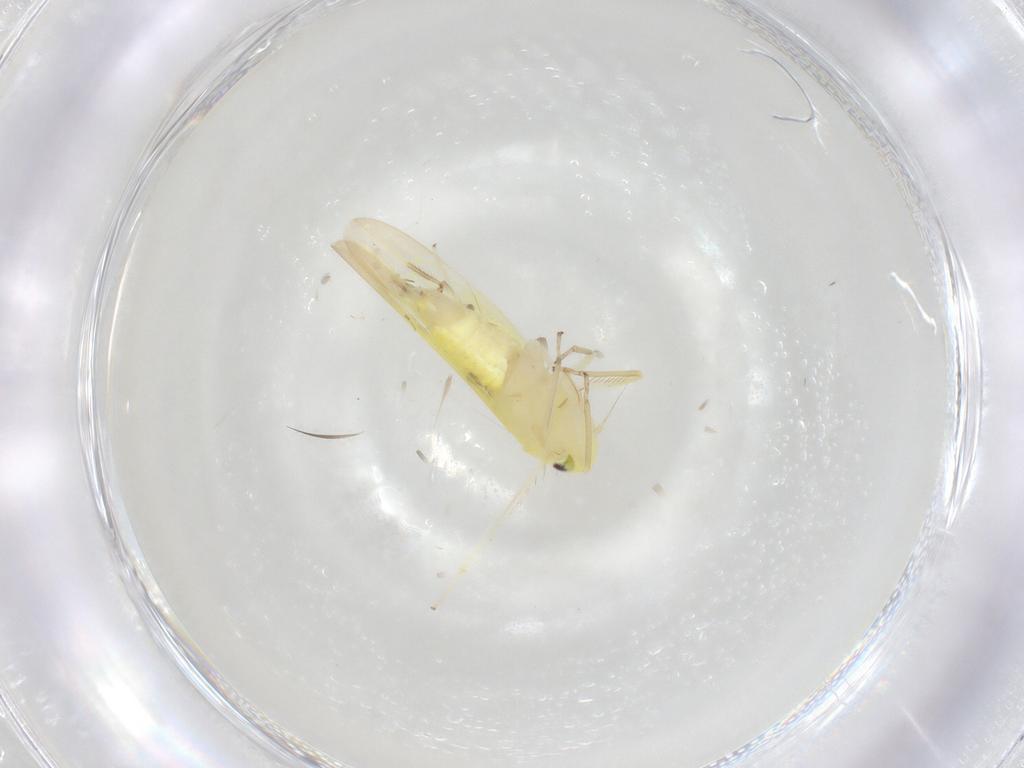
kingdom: Animalia
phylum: Arthropoda
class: Insecta
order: Hemiptera
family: Cicadellidae
